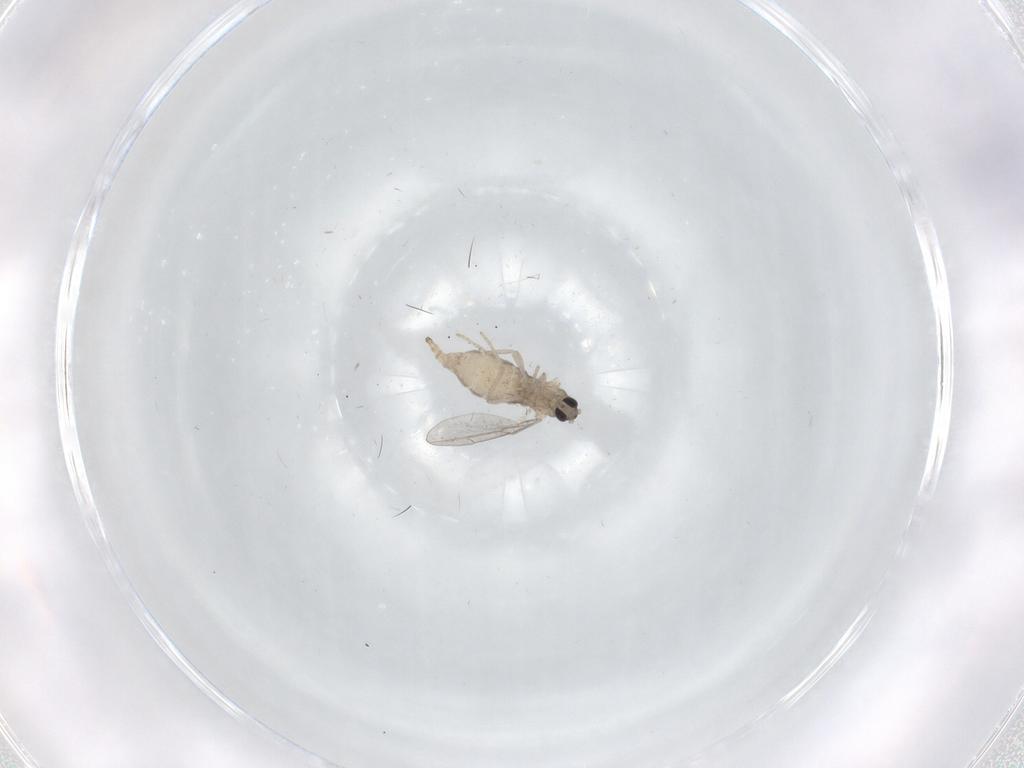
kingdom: Animalia
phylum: Arthropoda
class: Insecta
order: Diptera
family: Cecidomyiidae
